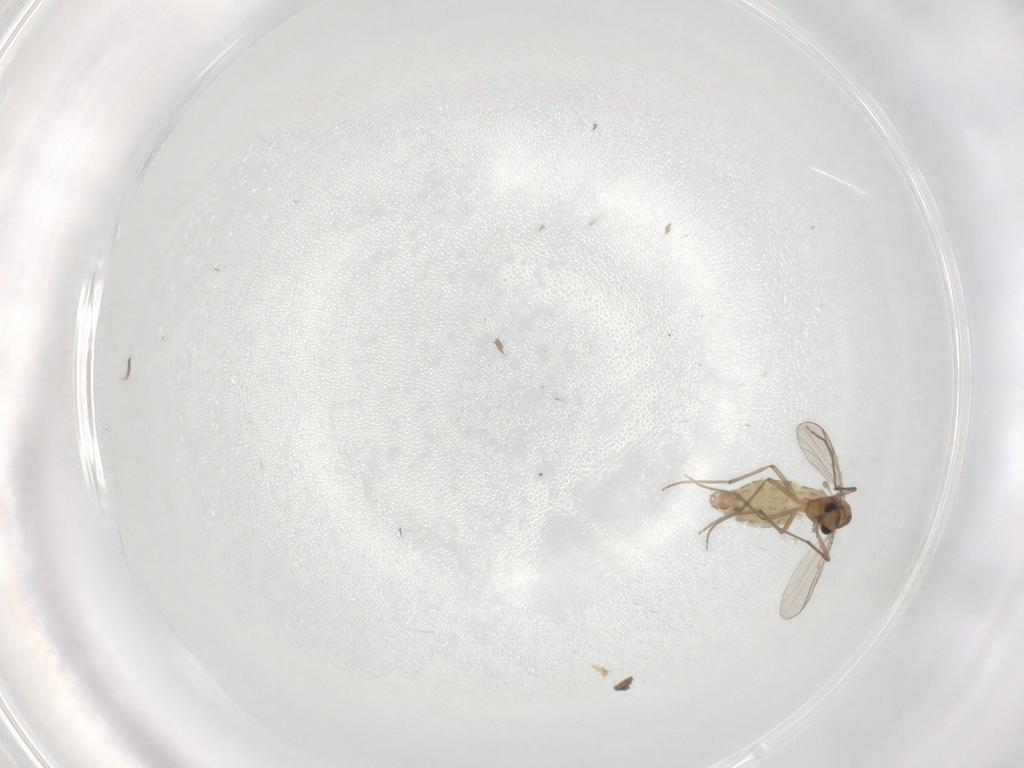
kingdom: Animalia
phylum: Arthropoda
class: Insecta
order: Diptera
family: Chironomidae
